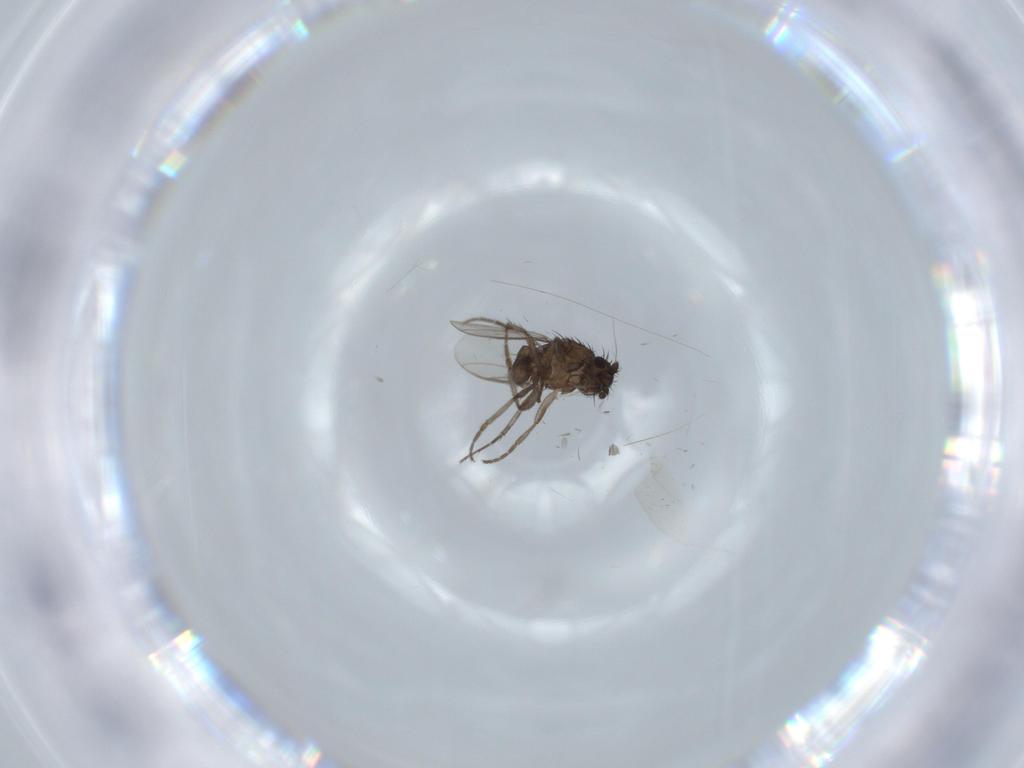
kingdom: Animalia
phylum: Arthropoda
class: Insecta
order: Diptera
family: Sphaeroceridae
